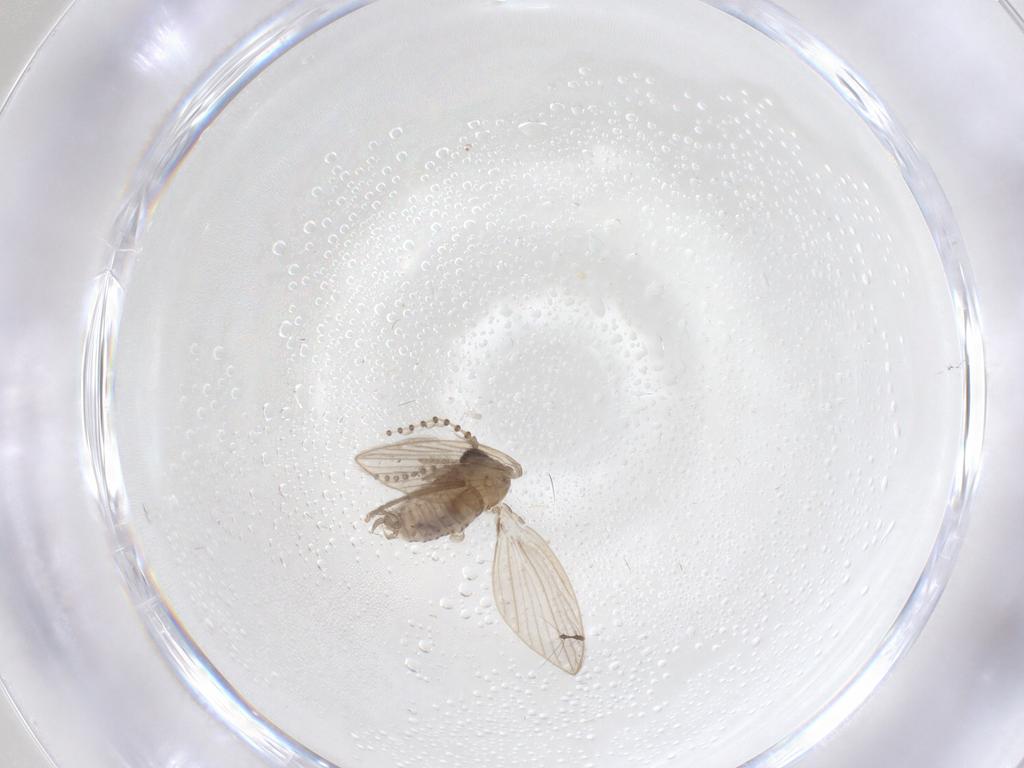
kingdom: Animalia
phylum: Arthropoda
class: Insecta
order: Diptera
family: Psychodidae
